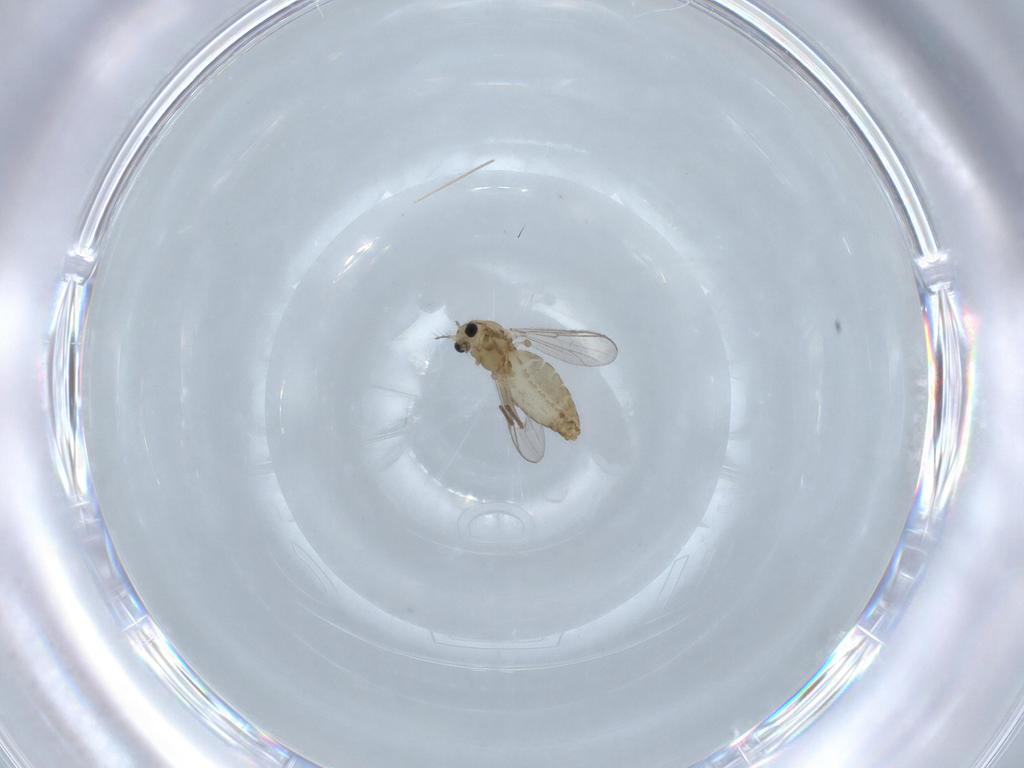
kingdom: Animalia
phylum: Arthropoda
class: Insecta
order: Diptera
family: Chironomidae
